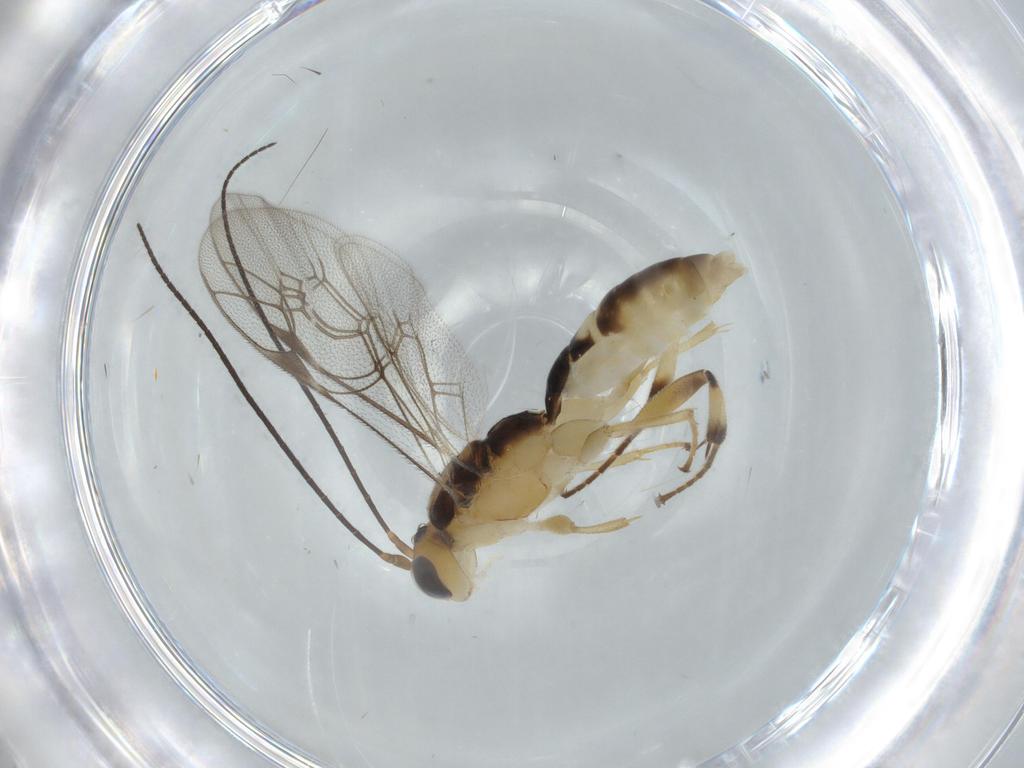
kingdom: Animalia
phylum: Arthropoda
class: Insecta
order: Hymenoptera
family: Ichneumonidae
